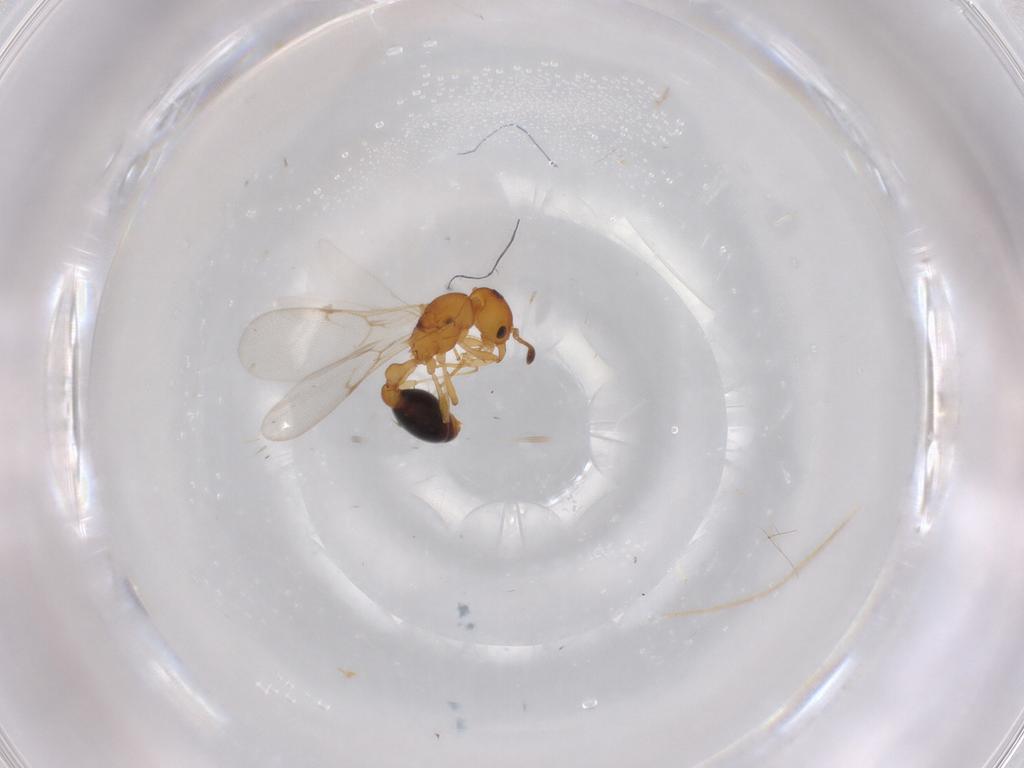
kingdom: Animalia
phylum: Arthropoda
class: Insecta
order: Hymenoptera
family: Formicidae
